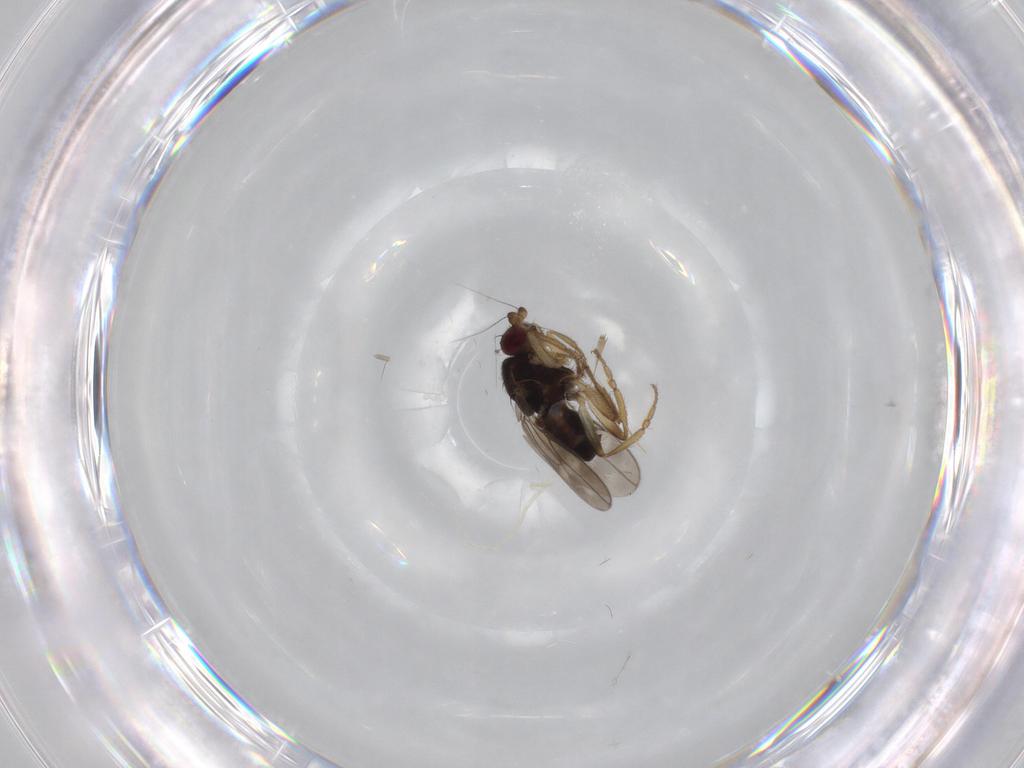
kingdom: Animalia
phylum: Arthropoda
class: Insecta
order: Diptera
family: Sphaeroceridae
